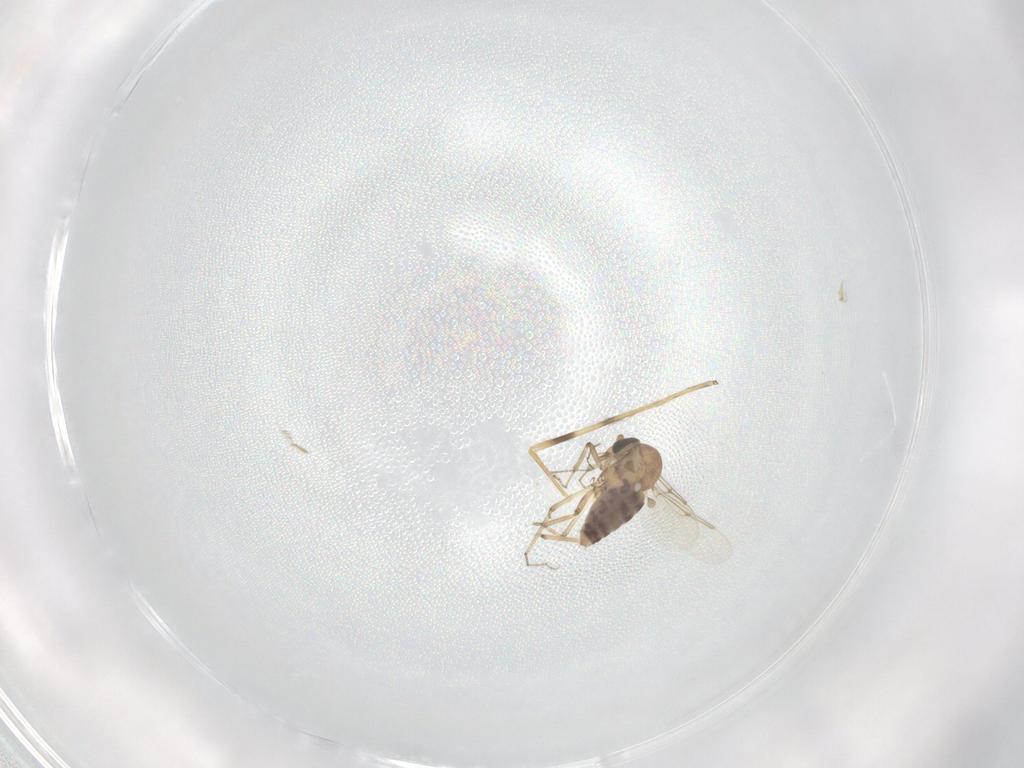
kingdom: Animalia
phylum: Arthropoda
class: Insecta
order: Diptera
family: Ceratopogonidae
